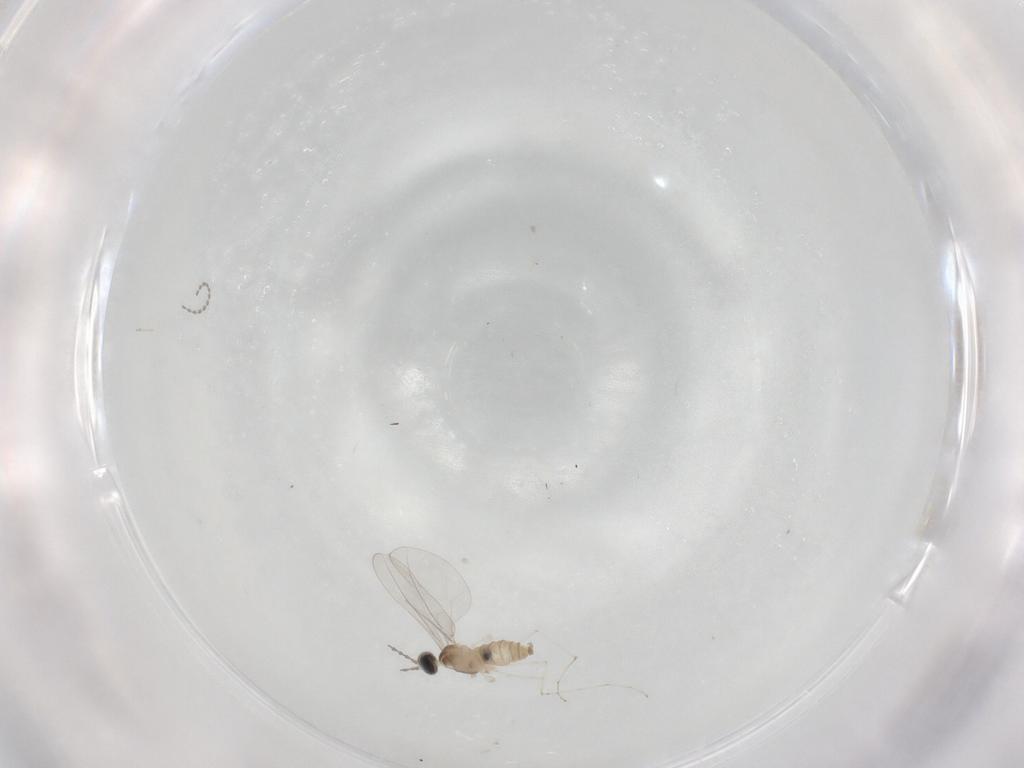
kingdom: Animalia
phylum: Arthropoda
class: Insecta
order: Diptera
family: Cecidomyiidae
